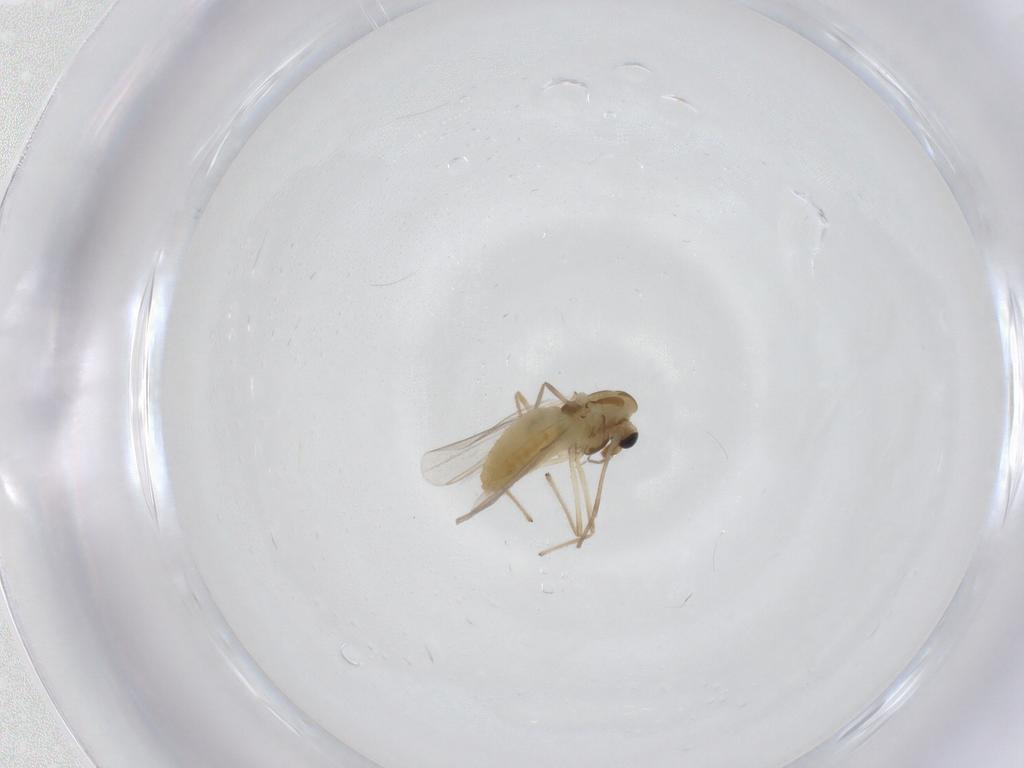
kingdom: Animalia
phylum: Arthropoda
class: Insecta
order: Diptera
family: Chironomidae
